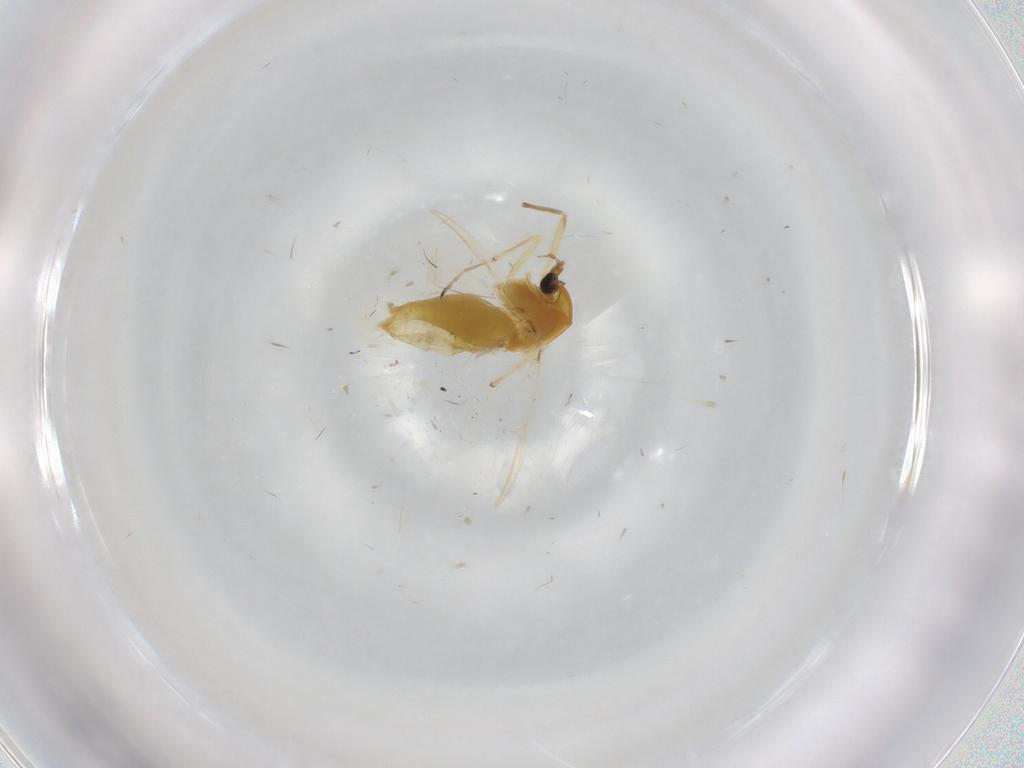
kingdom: Animalia
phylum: Arthropoda
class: Insecta
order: Diptera
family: Chironomidae
